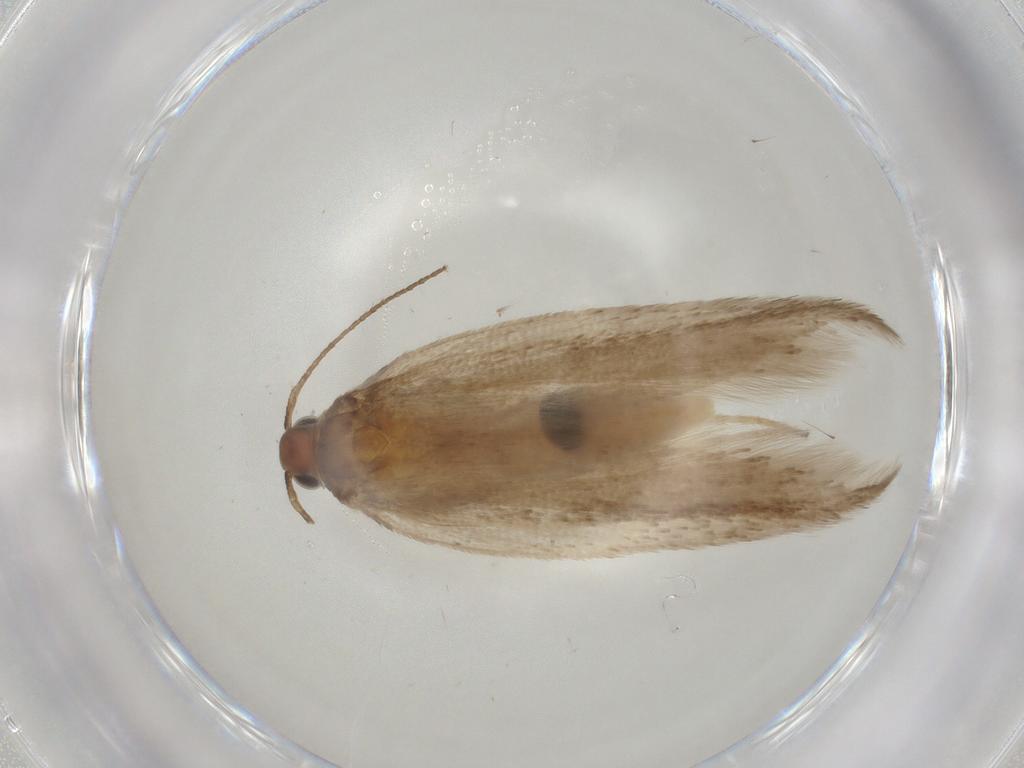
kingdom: Animalia
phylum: Arthropoda
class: Insecta
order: Lepidoptera
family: Gelechiidae
